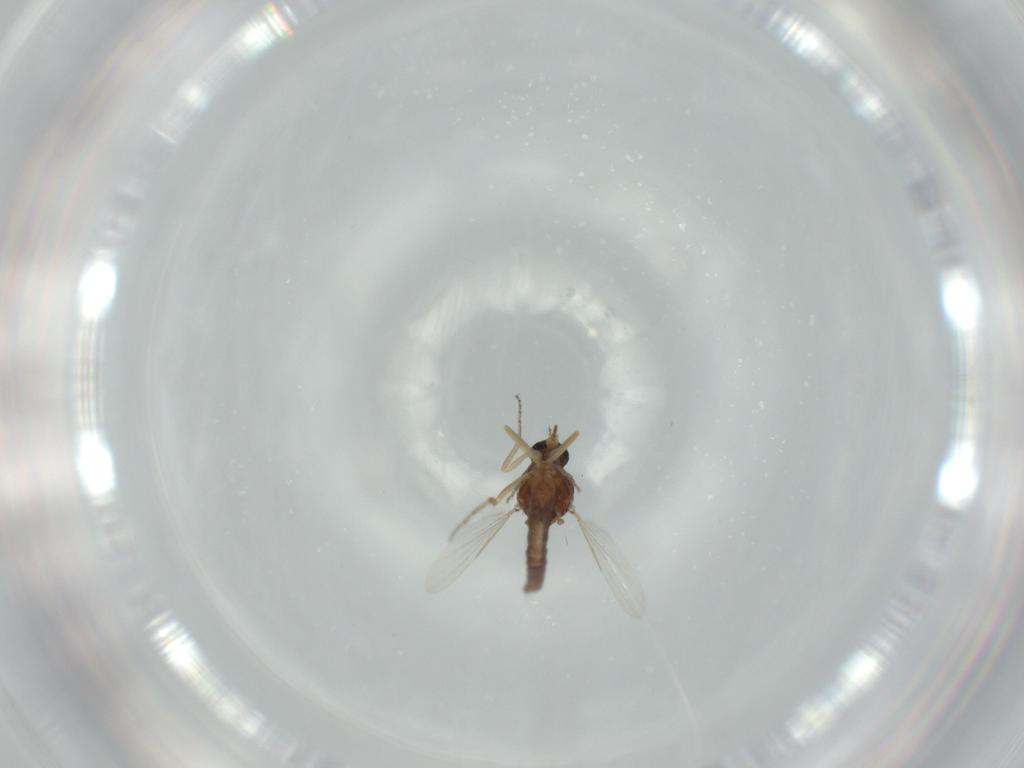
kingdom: Animalia
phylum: Arthropoda
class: Insecta
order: Diptera
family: Ceratopogonidae
